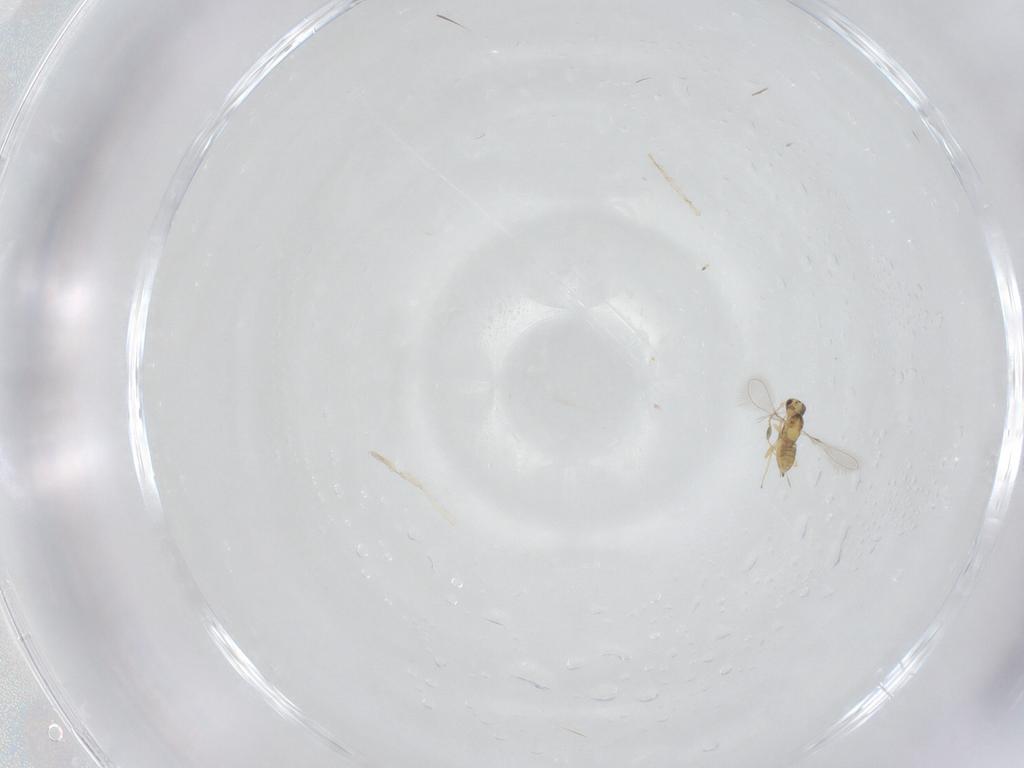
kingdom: Animalia
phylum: Arthropoda
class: Insecta
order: Hymenoptera
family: Mymaridae
